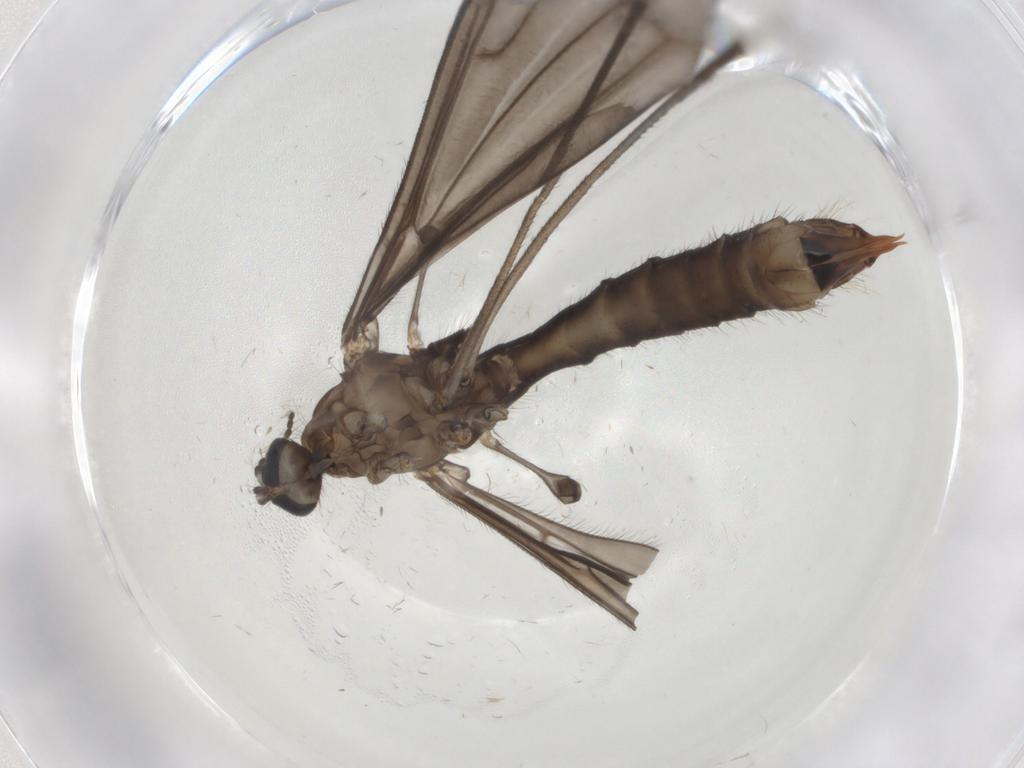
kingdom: Animalia
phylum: Arthropoda
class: Insecta
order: Diptera
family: Limoniidae
